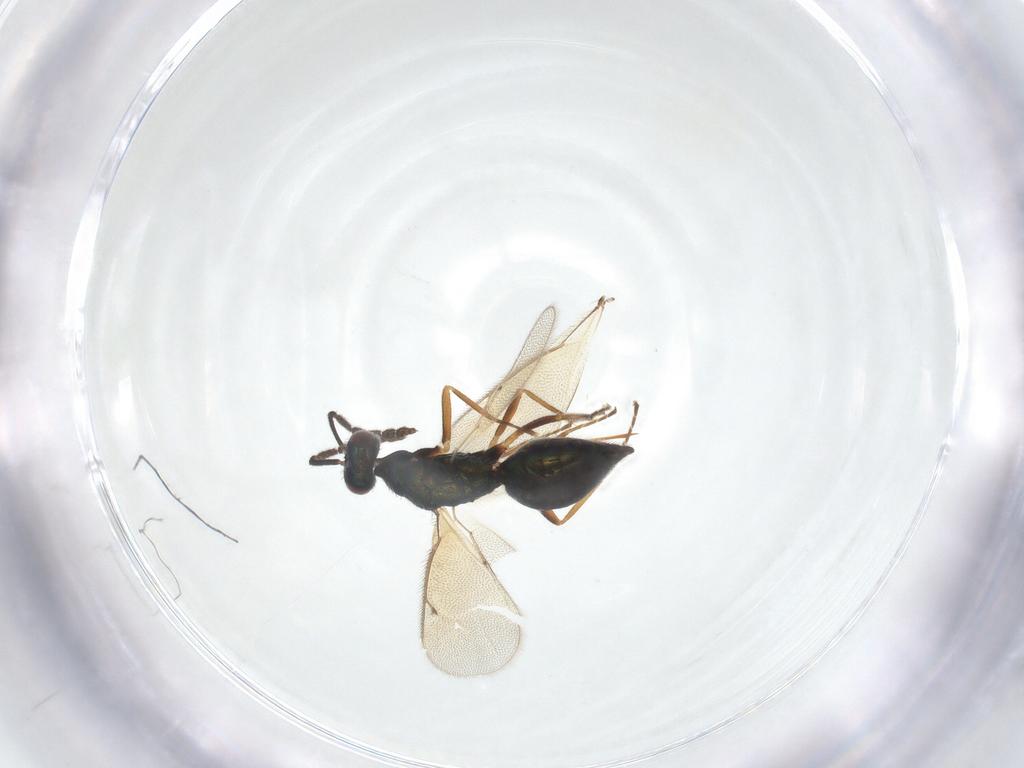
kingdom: Animalia
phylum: Arthropoda
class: Insecta
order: Hymenoptera
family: Eulophidae
